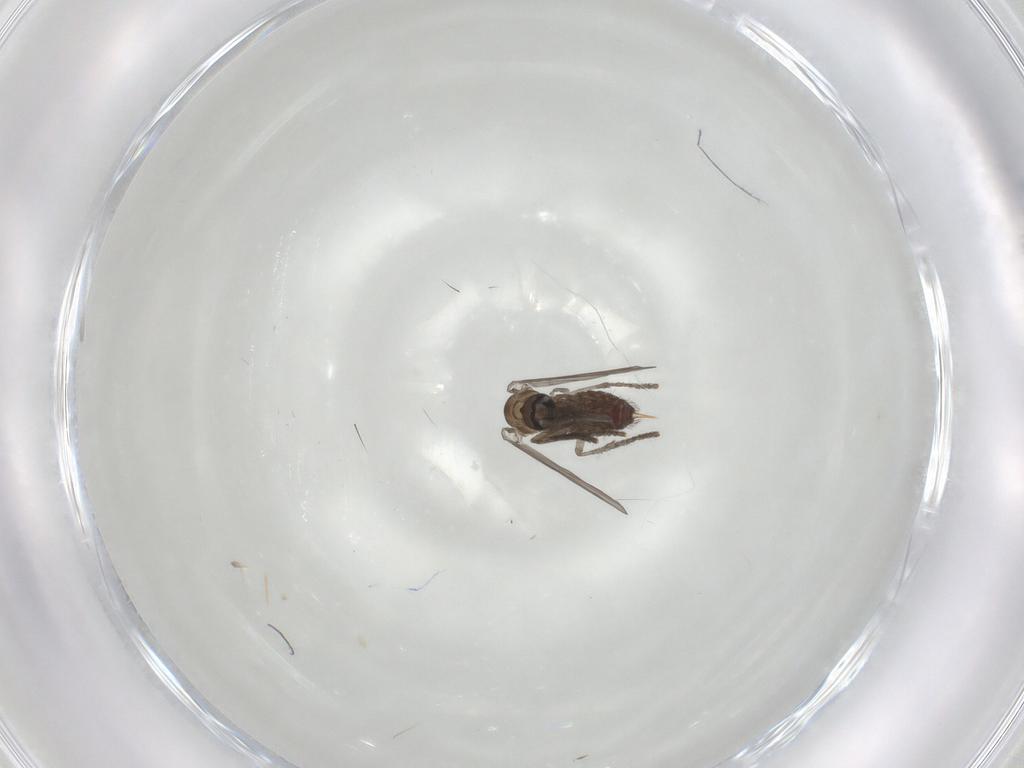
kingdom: Animalia
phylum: Arthropoda
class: Insecta
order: Diptera
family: Psychodidae
